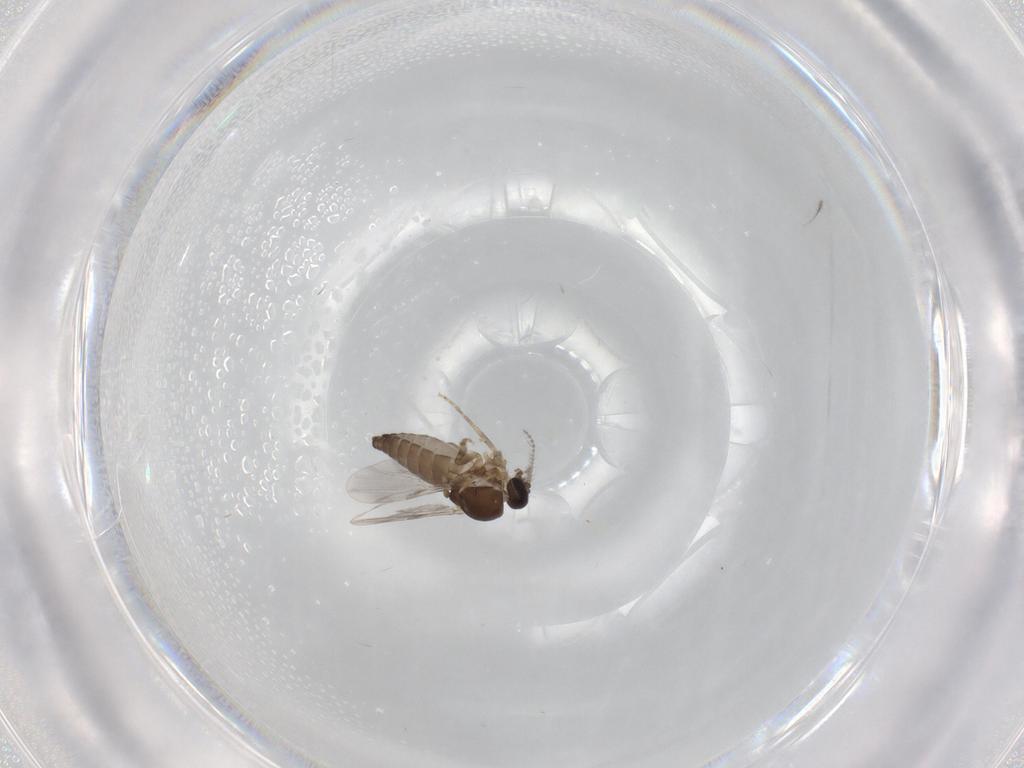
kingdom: Animalia
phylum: Arthropoda
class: Insecta
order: Diptera
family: Ceratopogonidae
